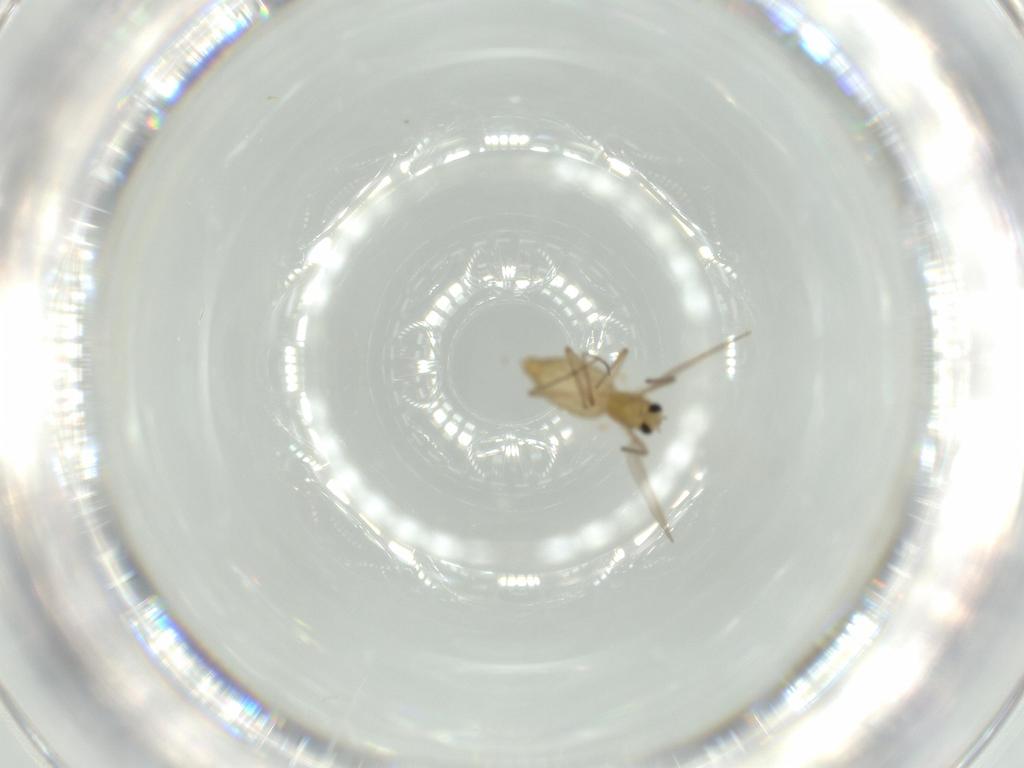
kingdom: Animalia
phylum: Arthropoda
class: Insecta
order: Diptera
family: Chironomidae
